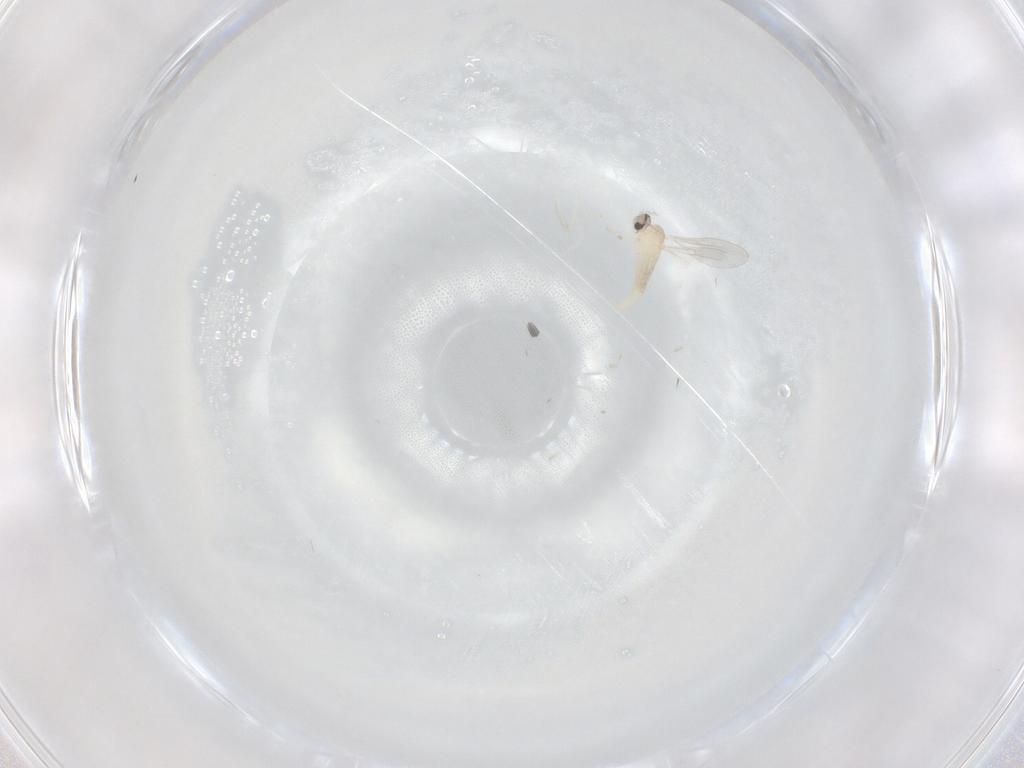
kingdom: Animalia
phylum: Arthropoda
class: Insecta
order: Diptera
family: Cecidomyiidae
